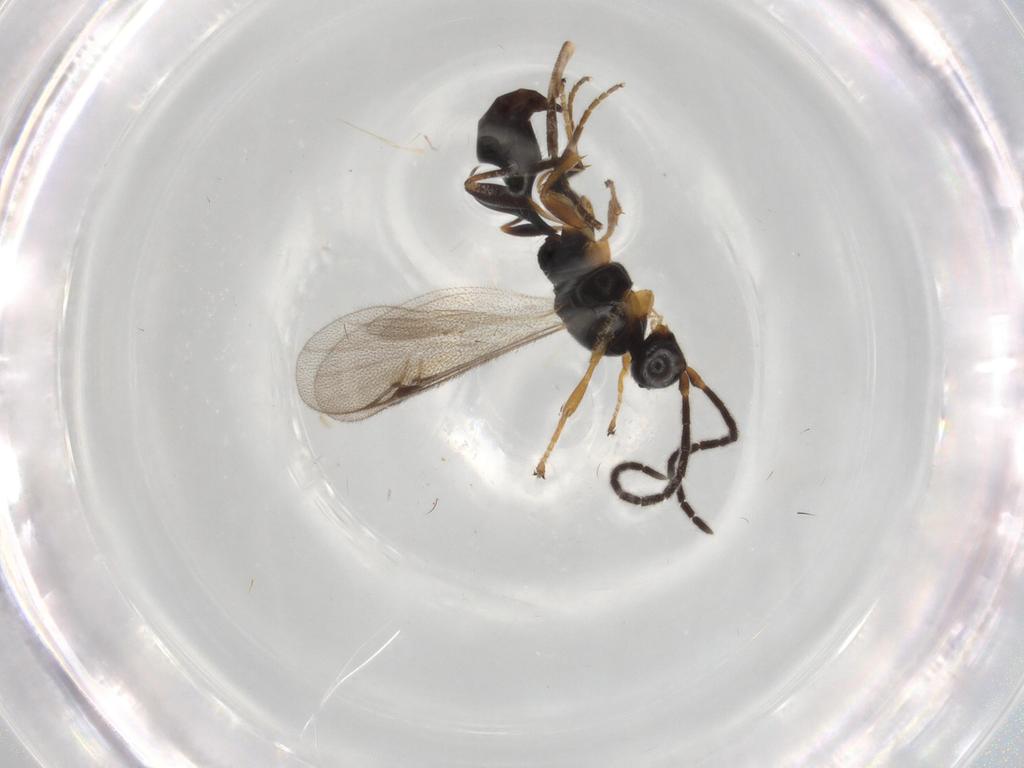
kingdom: Animalia
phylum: Arthropoda
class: Insecta
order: Hymenoptera
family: Proctotrupidae
